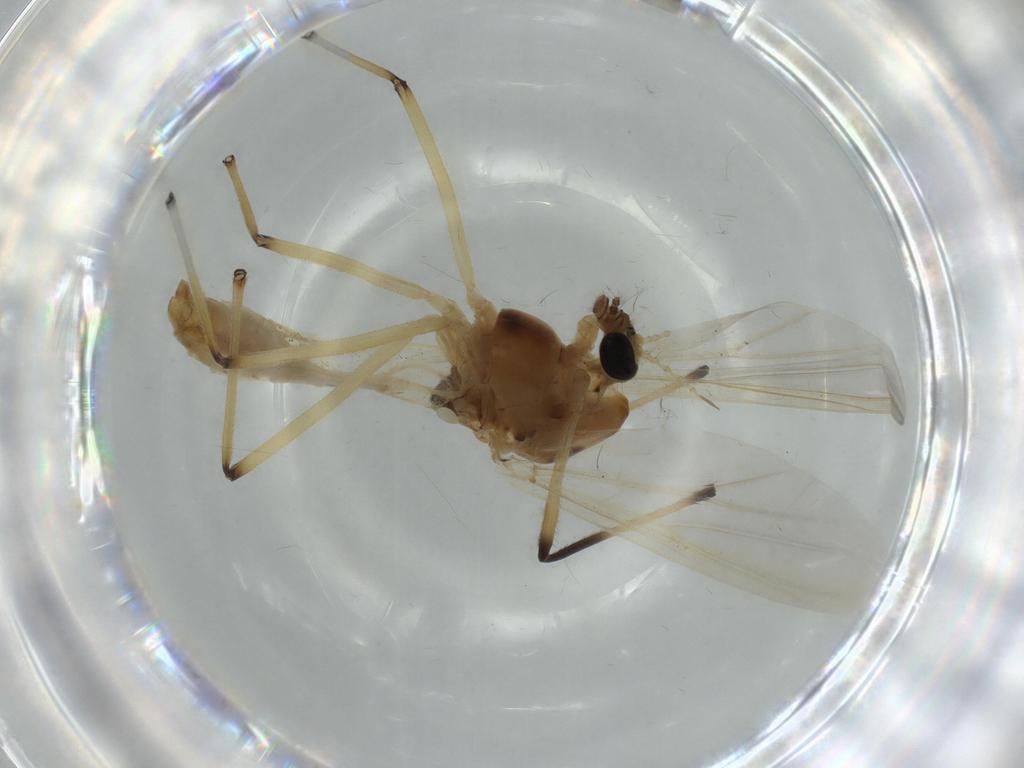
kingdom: Animalia
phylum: Arthropoda
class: Insecta
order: Diptera
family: Chironomidae
